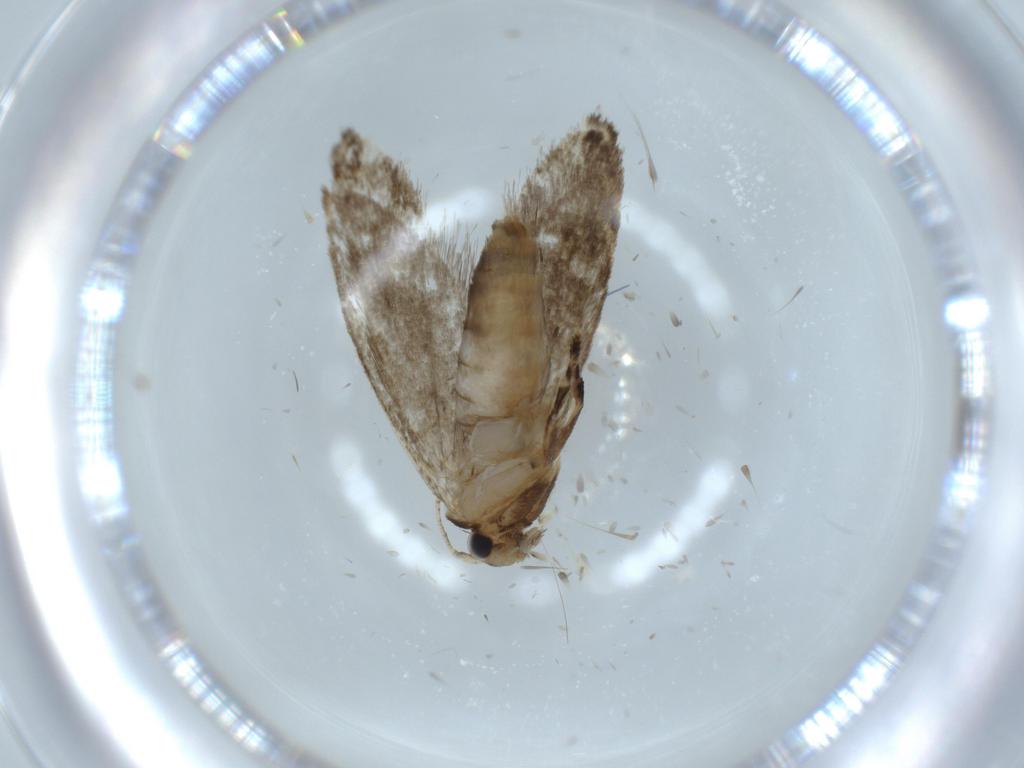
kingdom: Animalia
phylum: Arthropoda
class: Insecta
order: Lepidoptera
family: Tineidae
